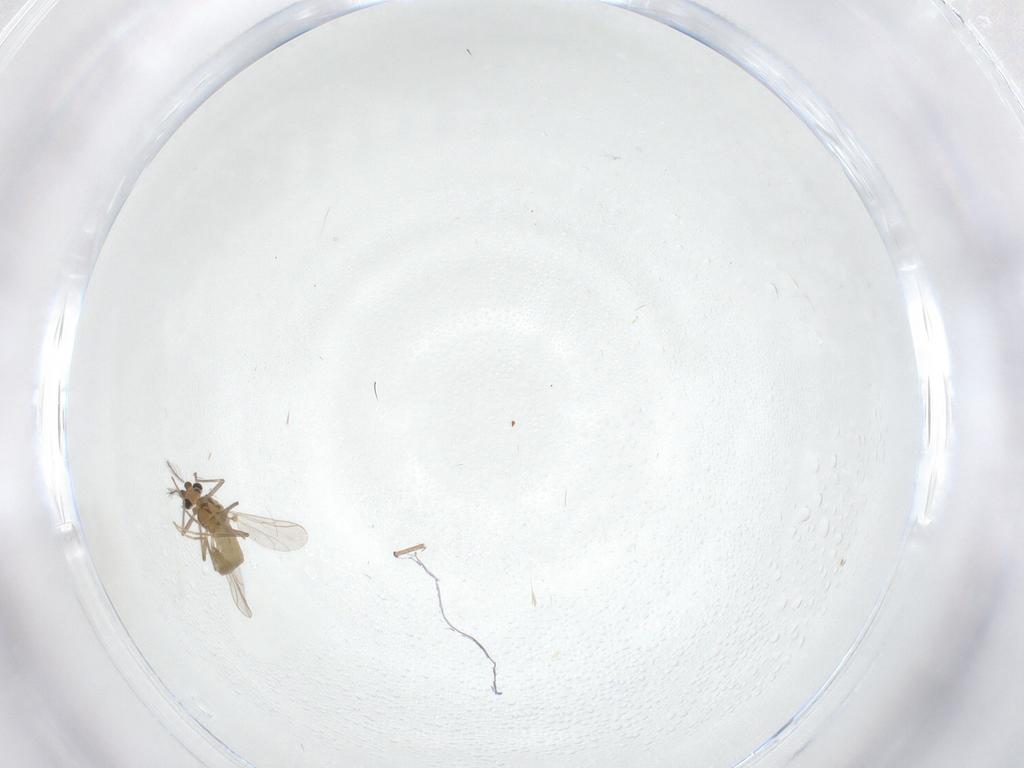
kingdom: Animalia
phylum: Arthropoda
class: Insecta
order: Diptera
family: Chironomidae
